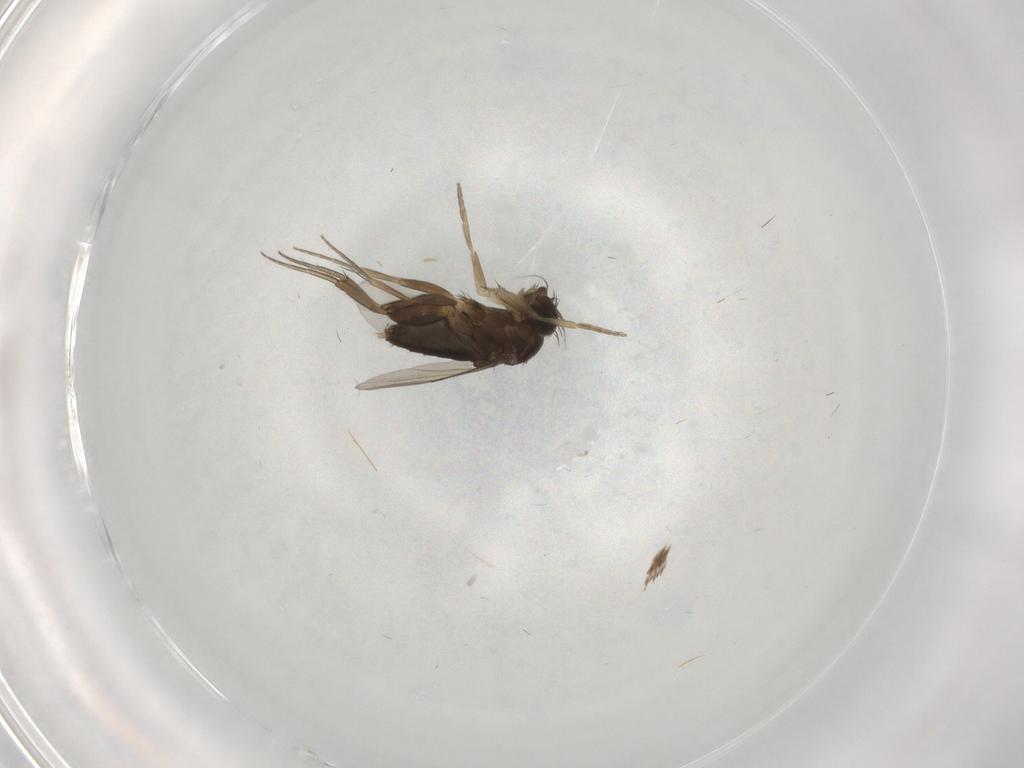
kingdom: Animalia
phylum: Arthropoda
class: Insecta
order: Diptera
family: Phoridae
